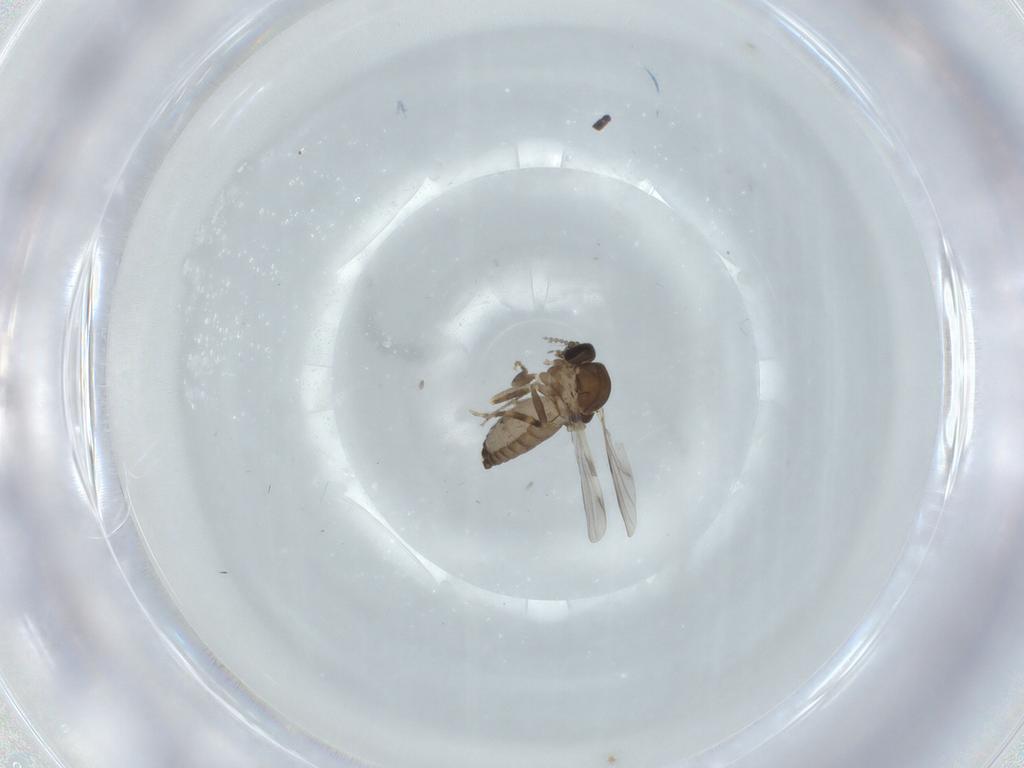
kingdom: Animalia
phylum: Arthropoda
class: Insecta
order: Diptera
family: Ceratopogonidae
